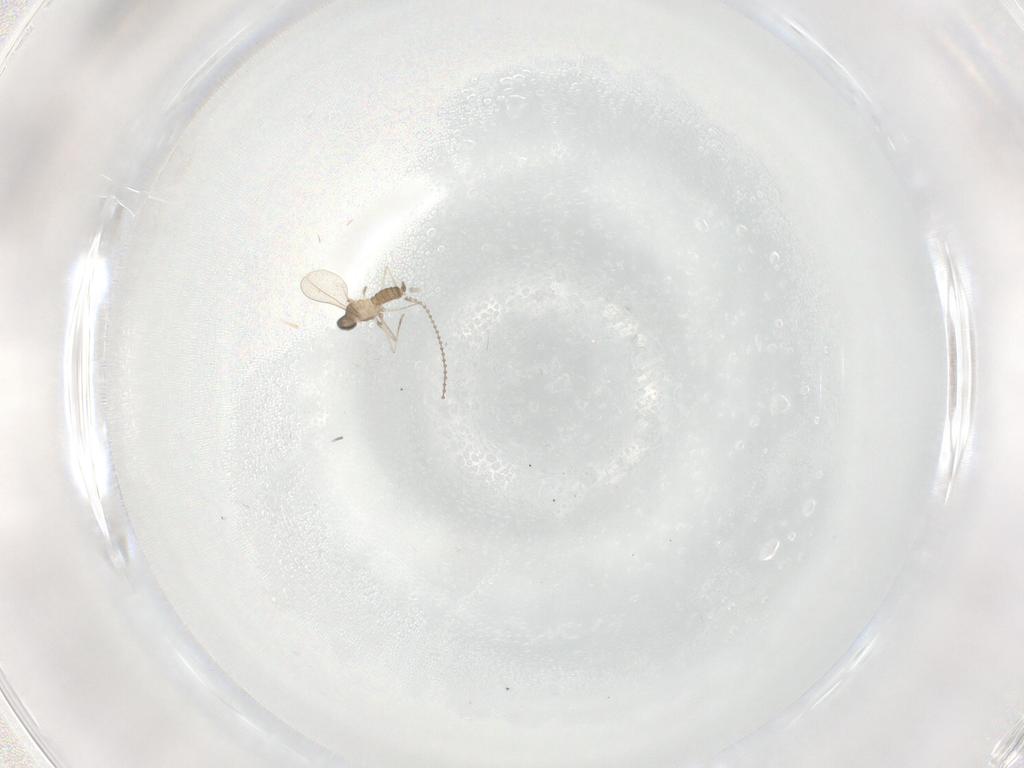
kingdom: Animalia
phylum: Arthropoda
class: Insecta
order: Diptera
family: Cecidomyiidae
